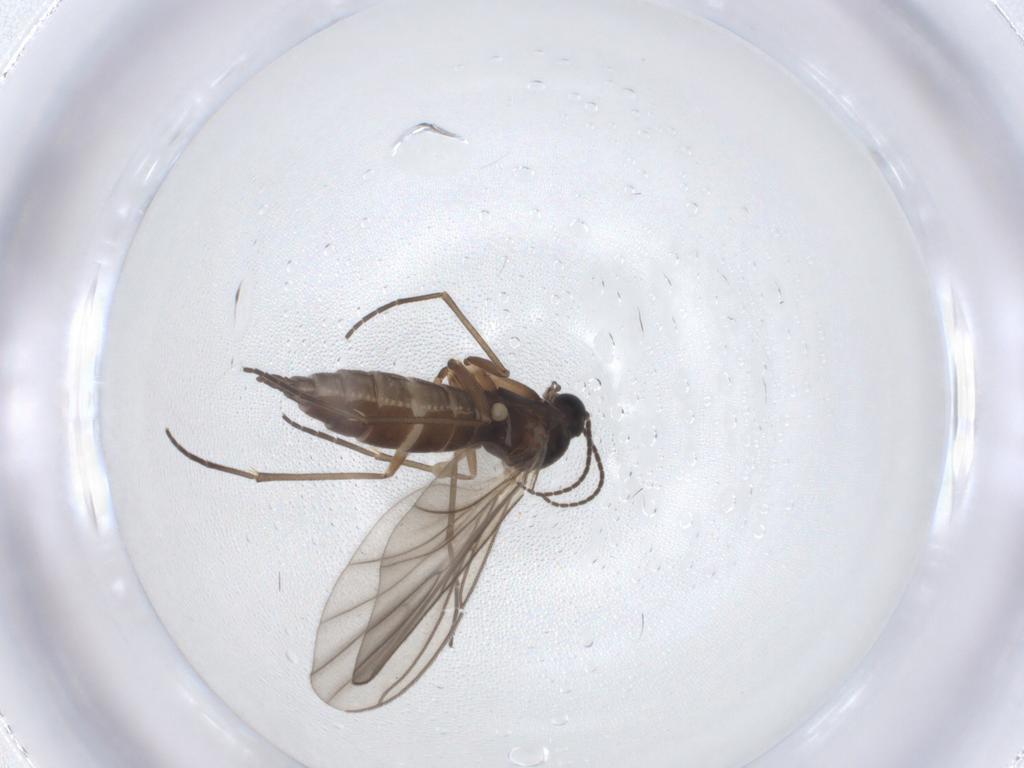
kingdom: Animalia
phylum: Arthropoda
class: Insecta
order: Diptera
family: Sciaridae
